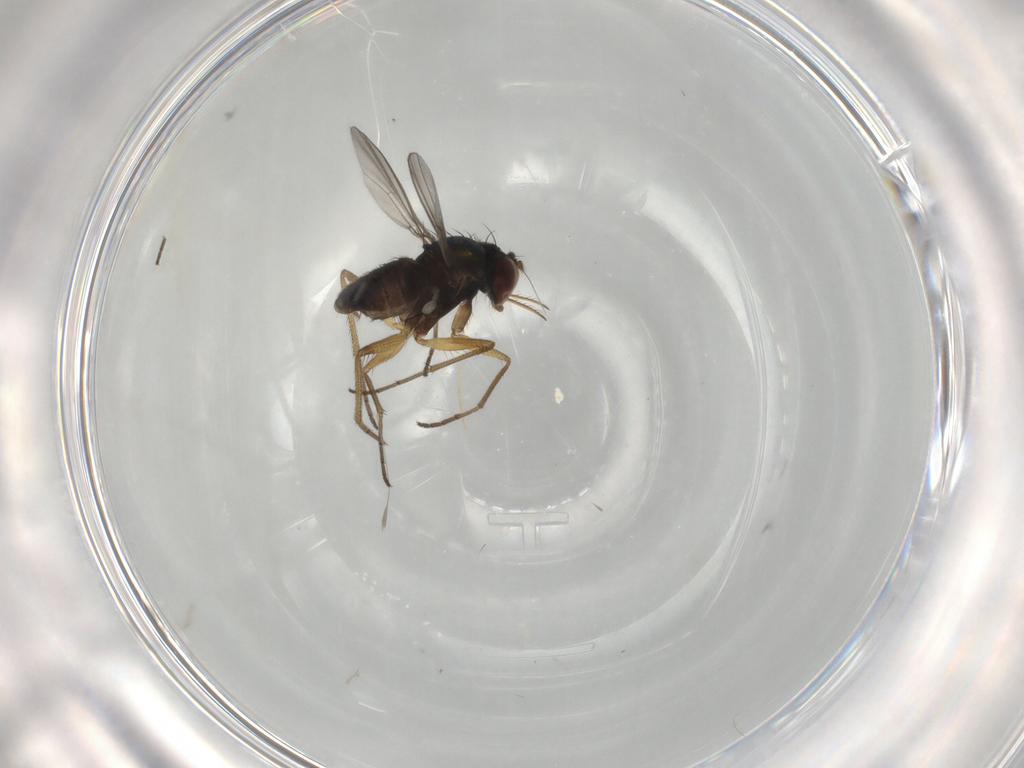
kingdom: Animalia
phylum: Arthropoda
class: Insecta
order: Diptera
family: Dolichopodidae
